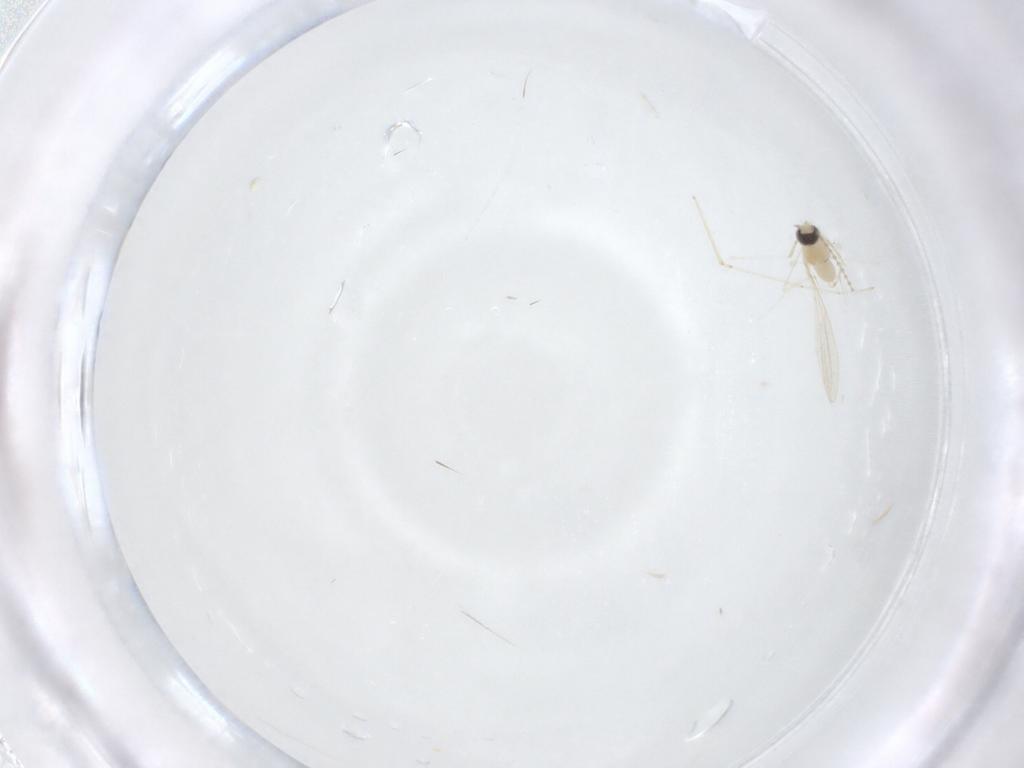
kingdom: Animalia
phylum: Arthropoda
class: Insecta
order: Diptera
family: Cecidomyiidae
